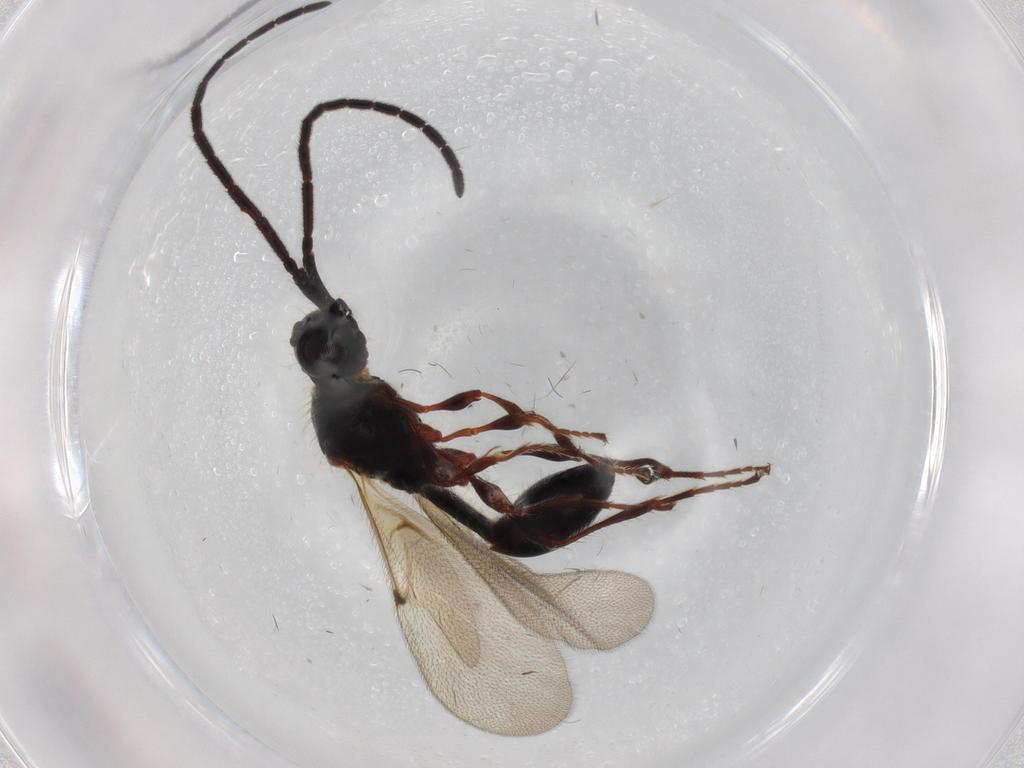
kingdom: Animalia
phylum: Arthropoda
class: Insecta
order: Hymenoptera
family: Diapriidae
